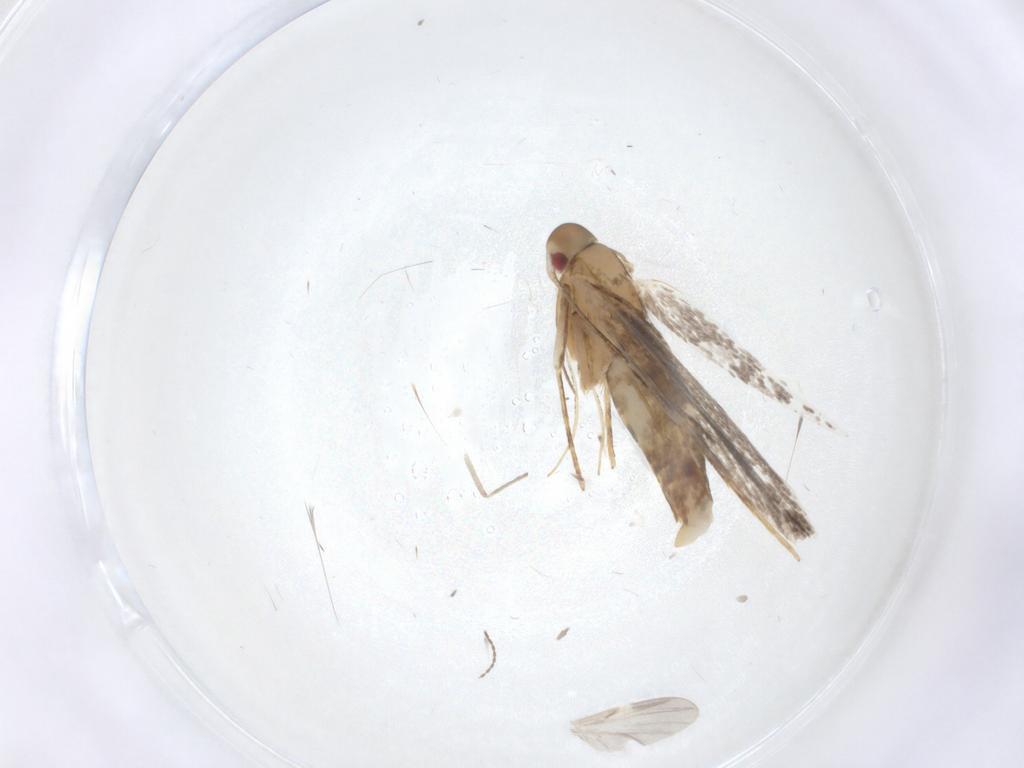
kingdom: Animalia
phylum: Arthropoda
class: Insecta
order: Lepidoptera
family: Cosmopterigidae
